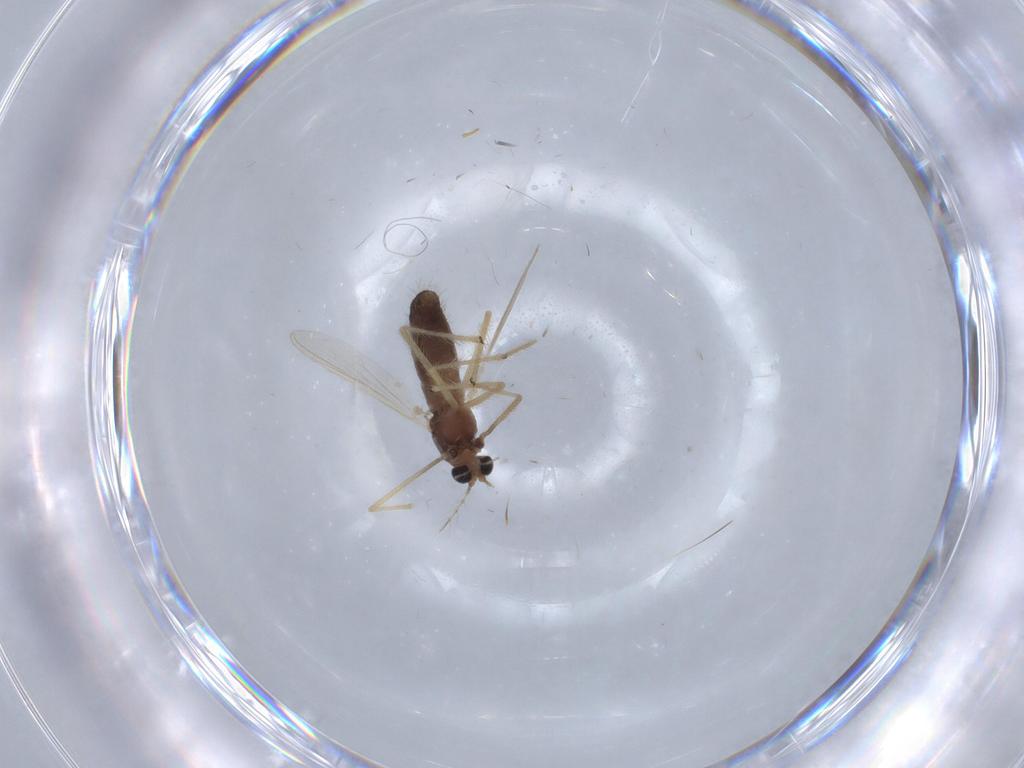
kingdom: Animalia
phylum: Arthropoda
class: Insecta
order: Diptera
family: Chironomidae
